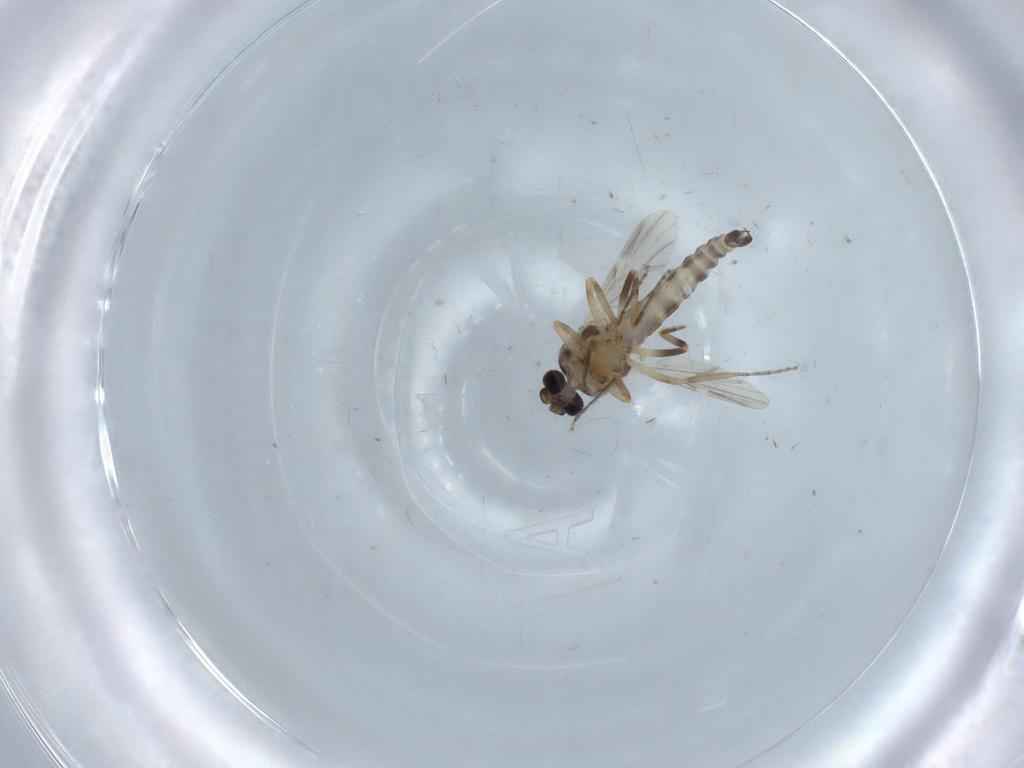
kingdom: Animalia
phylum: Arthropoda
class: Insecta
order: Diptera
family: Ceratopogonidae
